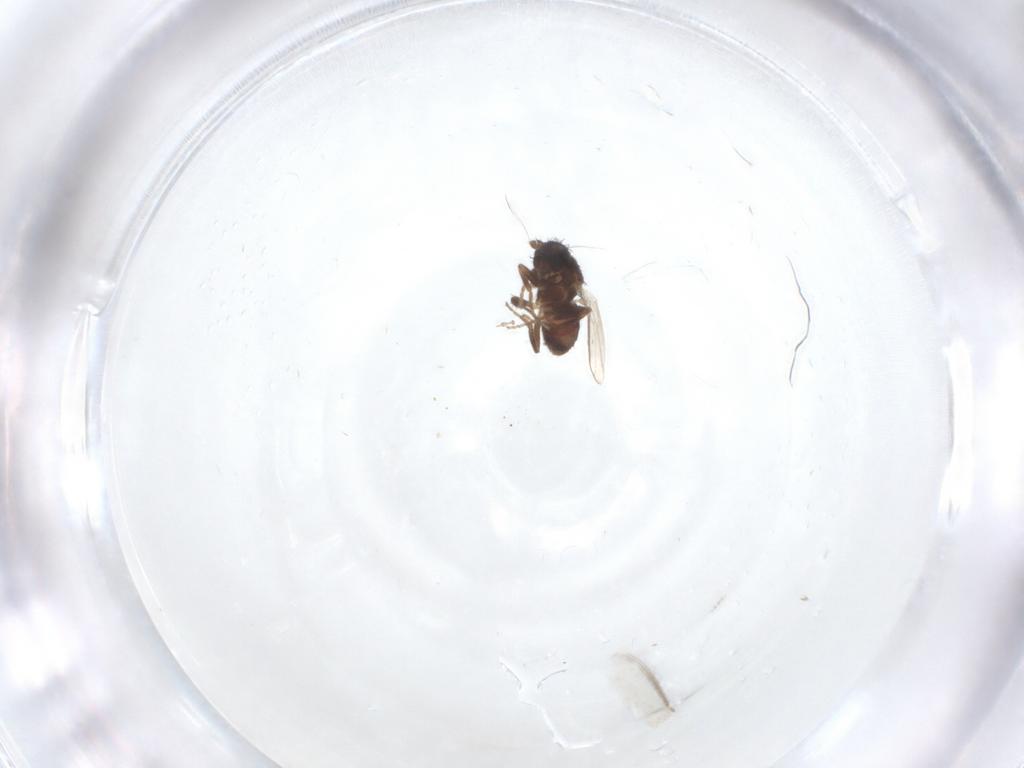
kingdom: Animalia
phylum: Arthropoda
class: Insecta
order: Diptera
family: Sphaeroceridae
